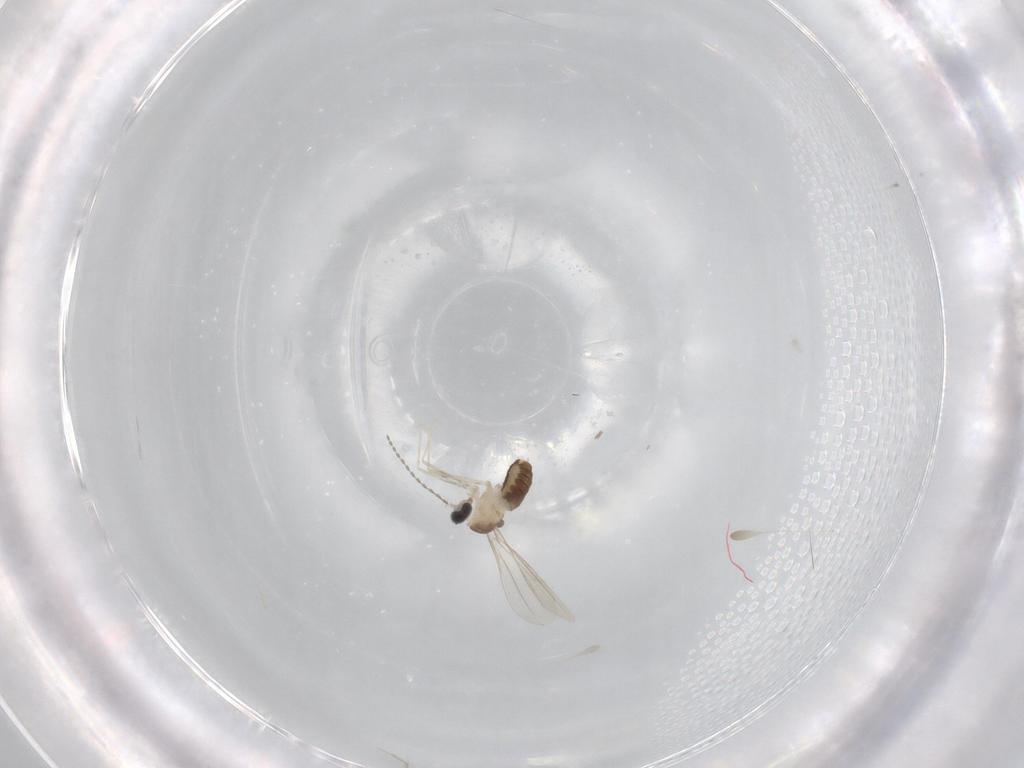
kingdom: Animalia
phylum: Arthropoda
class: Insecta
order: Diptera
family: Cecidomyiidae
